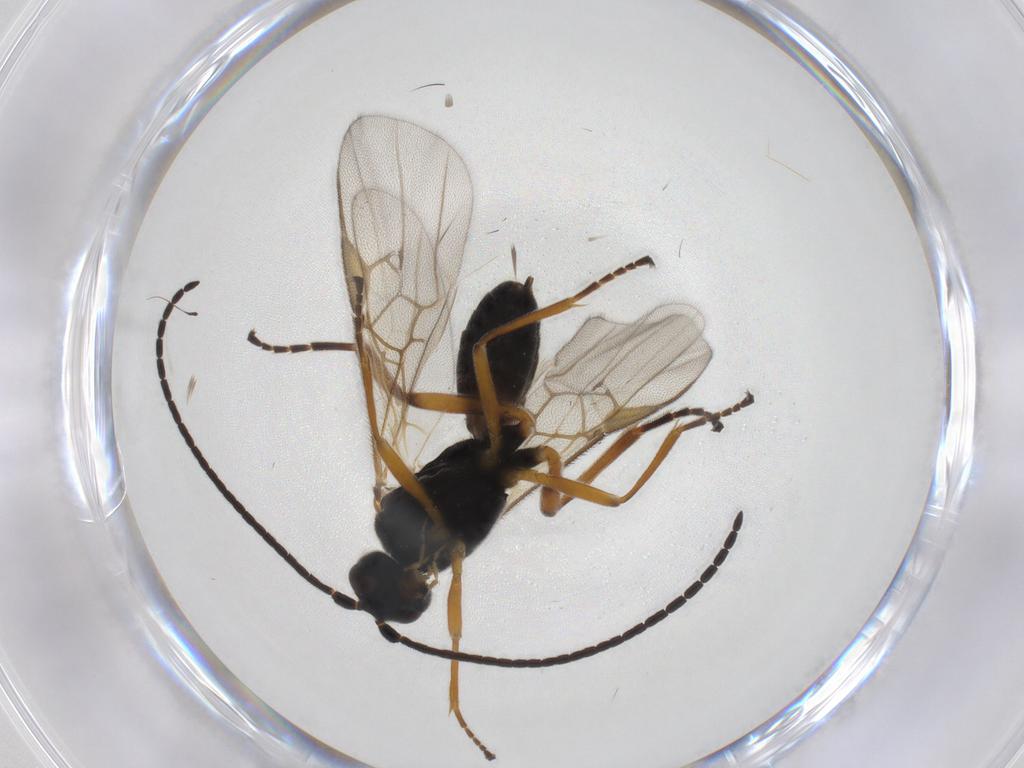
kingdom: Animalia
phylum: Arthropoda
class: Insecta
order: Hymenoptera
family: Braconidae
